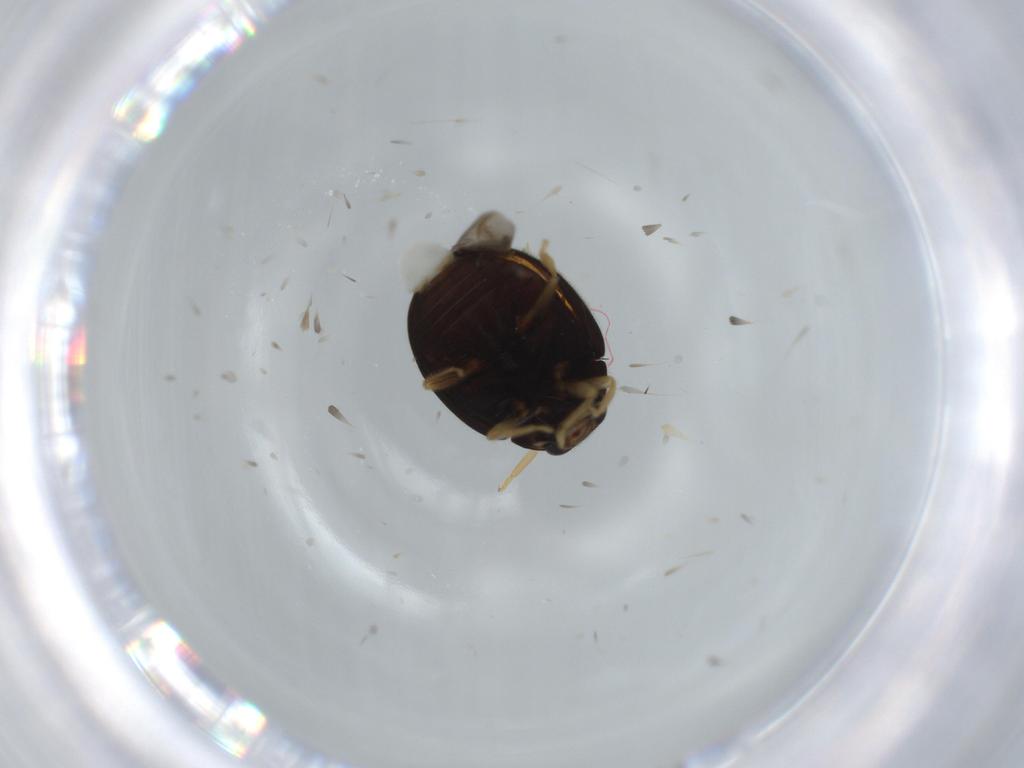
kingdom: Animalia
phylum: Arthropoda
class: Insecta
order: Coleoptera
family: Coccinellidae
